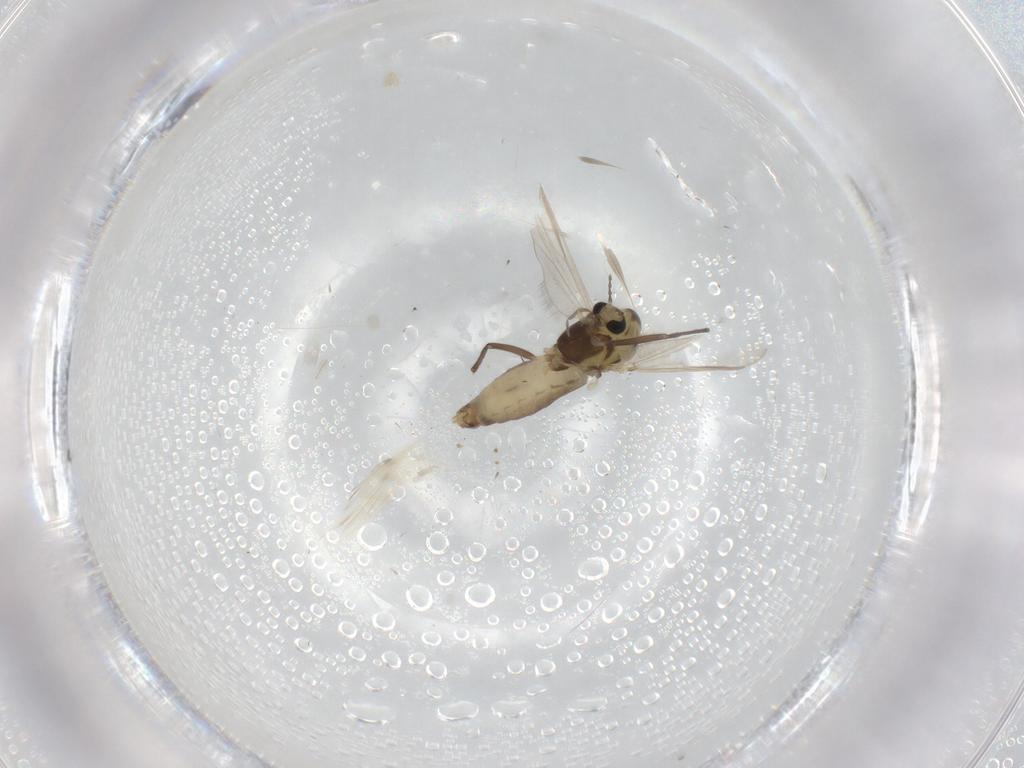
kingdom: Animalia
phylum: Arthropoda
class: Insecta
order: Diptera
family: Chironomidae
